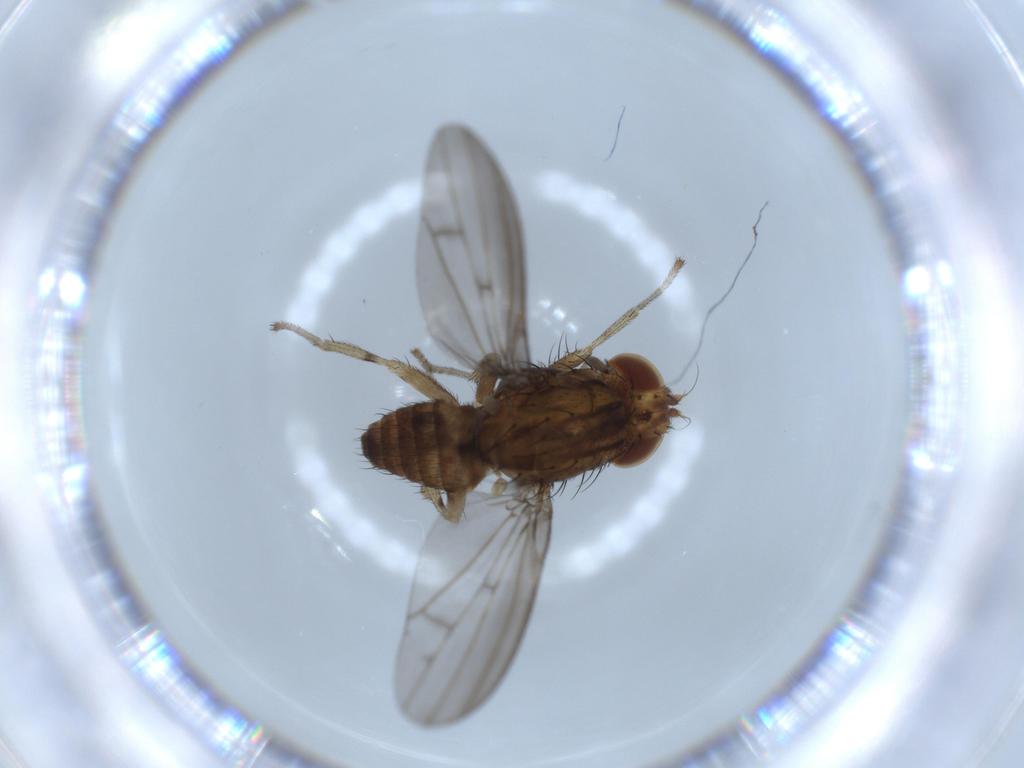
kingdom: Animalia
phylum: Arthropoda
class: Insecta
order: Diptera
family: Lauxaniidae
